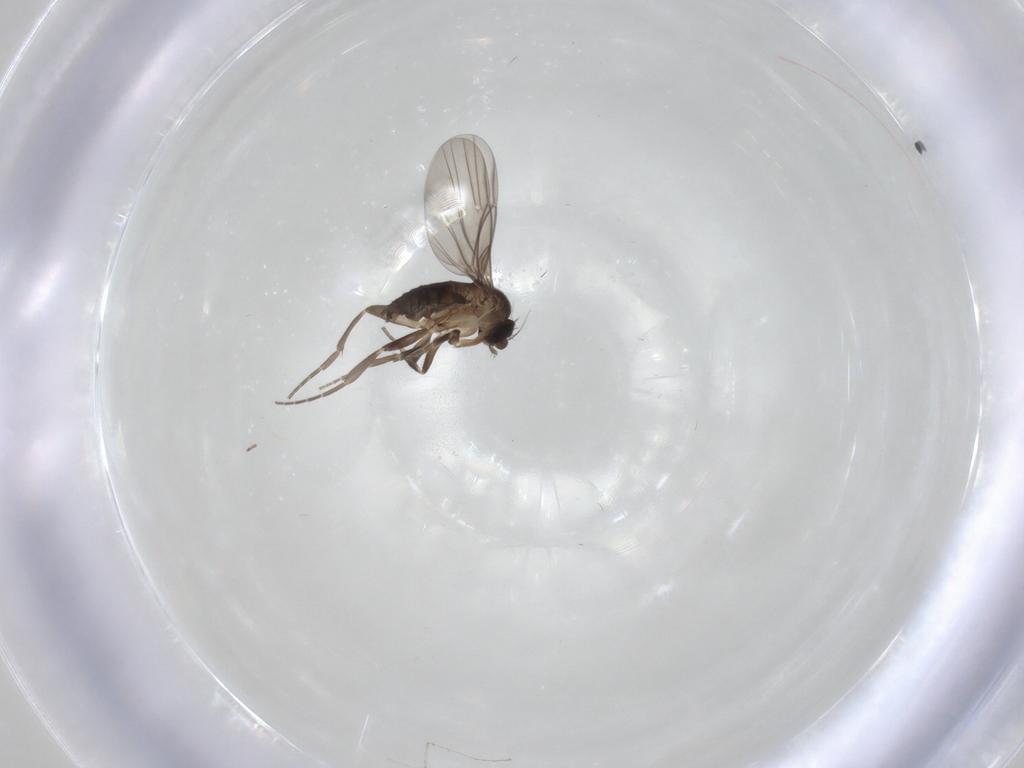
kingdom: Animalia
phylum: Arthropoda
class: Insecta
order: Diptera
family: Cecidomyiidae
